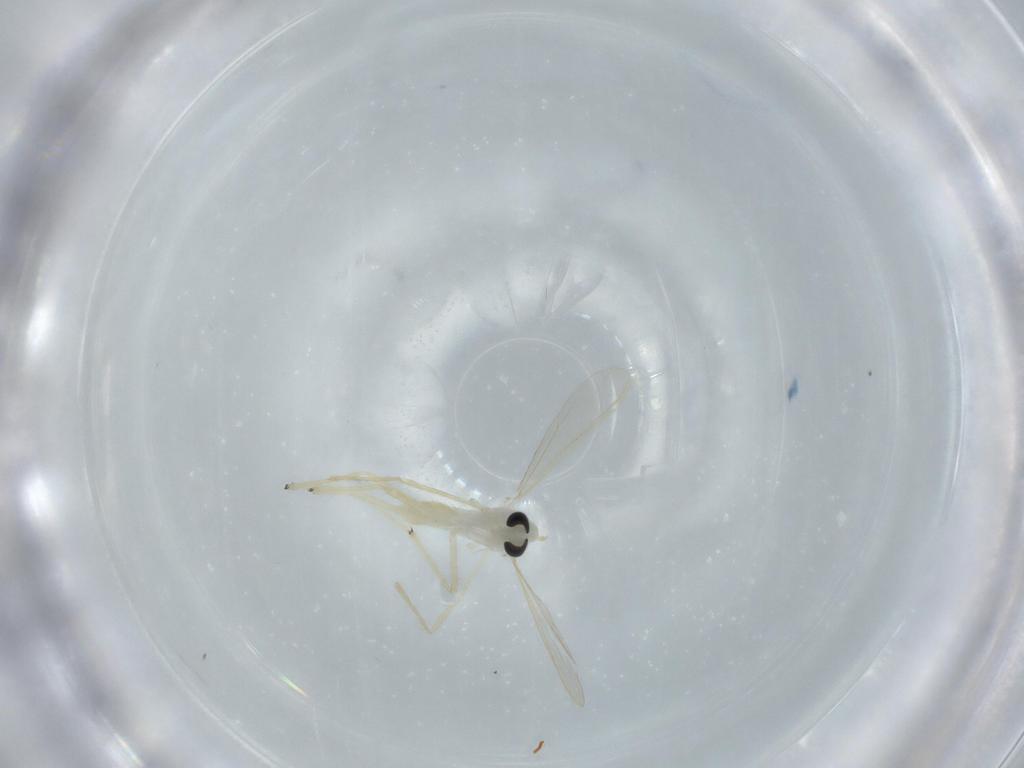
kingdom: Animalia
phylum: Arthropoda
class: Insecta
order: Diptera
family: Chironomidae
